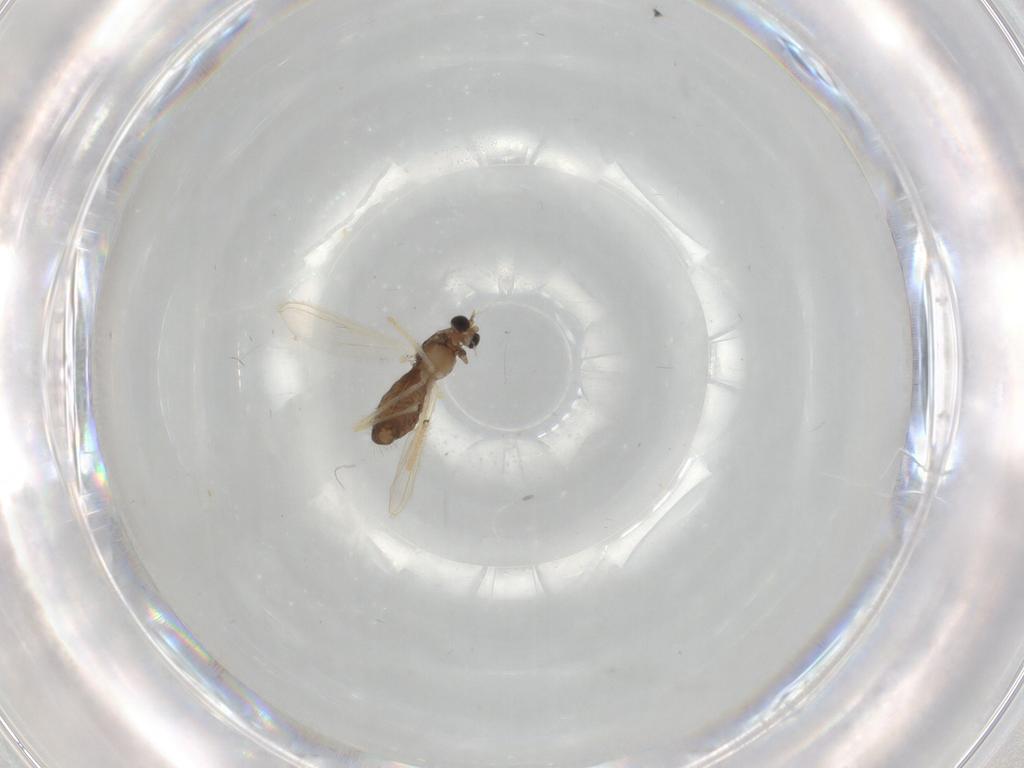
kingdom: Animalia
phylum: Arthropoda
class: Insecta
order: Diptera
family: Chironomidae
